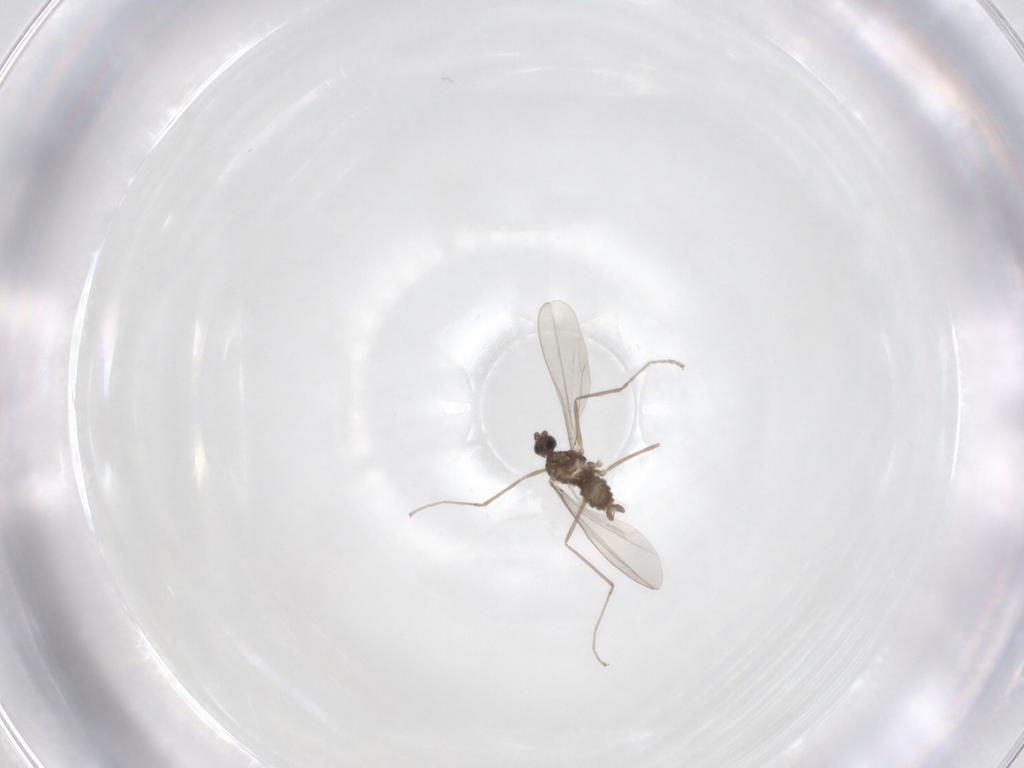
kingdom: Animalia
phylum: Arthropoda
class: Insecta
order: Diptera
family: Cecidomyiidae
